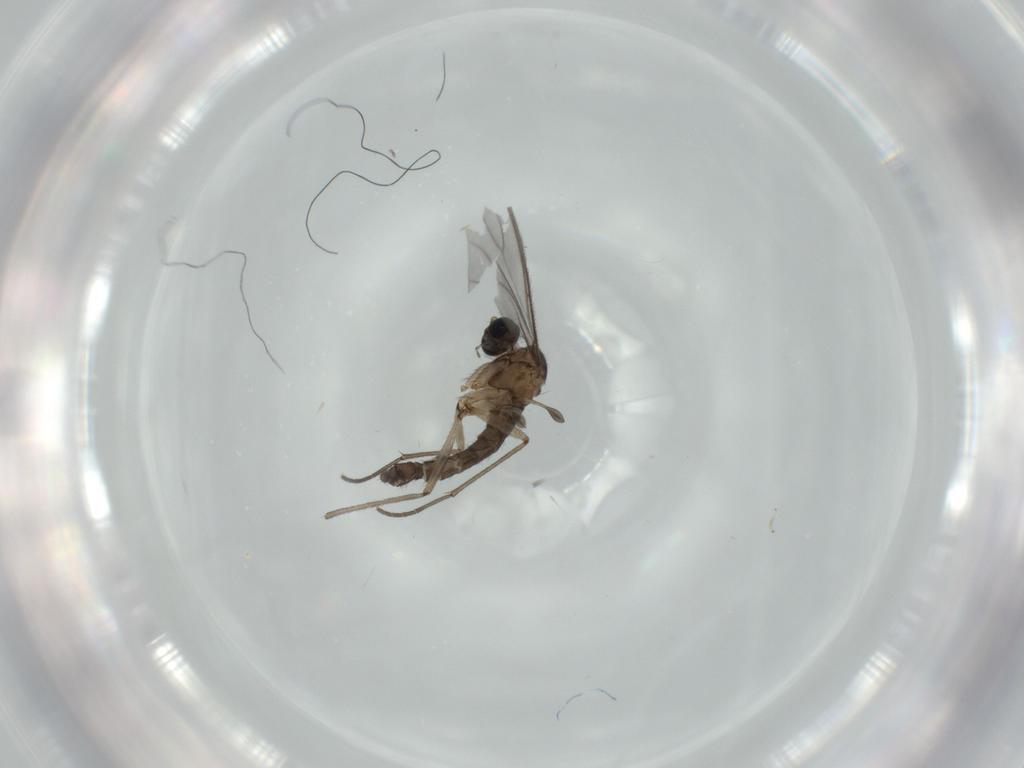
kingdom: Animalia
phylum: Arthropoda
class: Insecta
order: Diptera
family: Sciaridae
